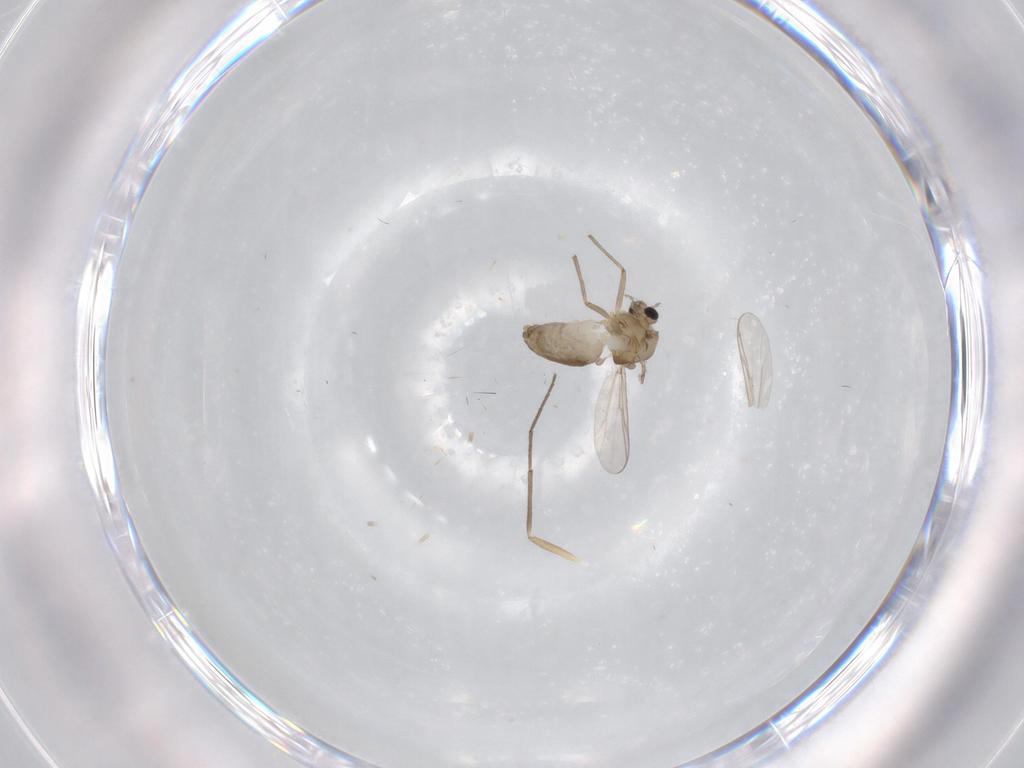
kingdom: Animalia
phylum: Arthropoda
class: Insecta
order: Diptera
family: Chironomidae
